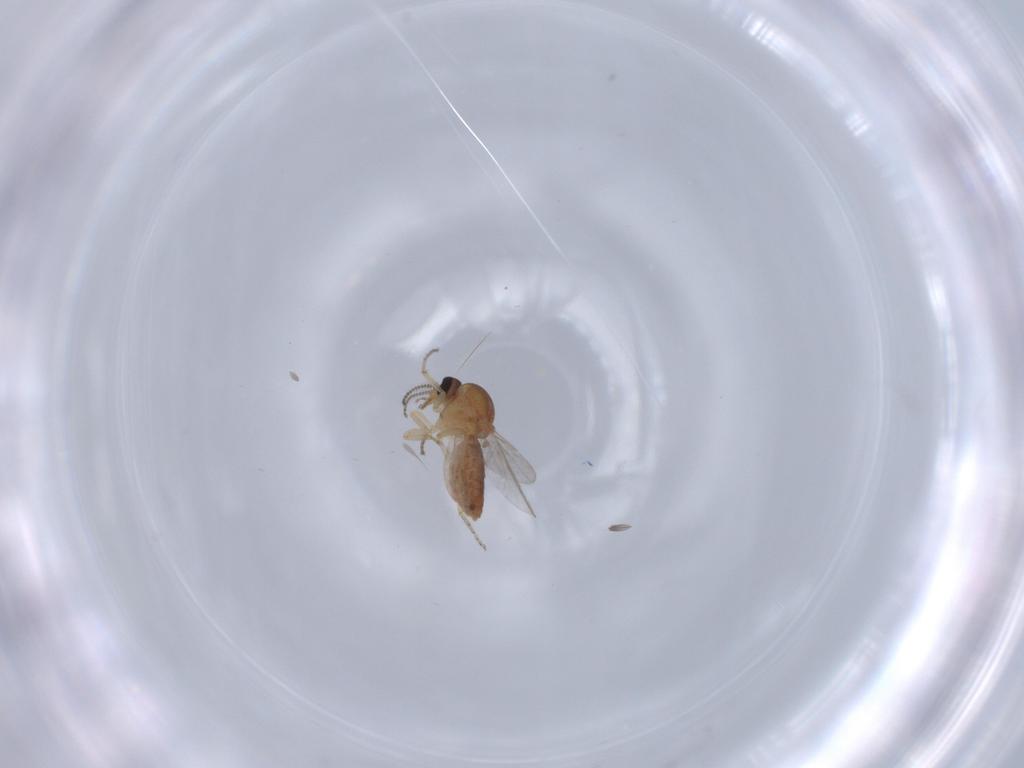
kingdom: Animalia
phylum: Arthropoda
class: Insecta
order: Diptera
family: Ceratopogonidae
